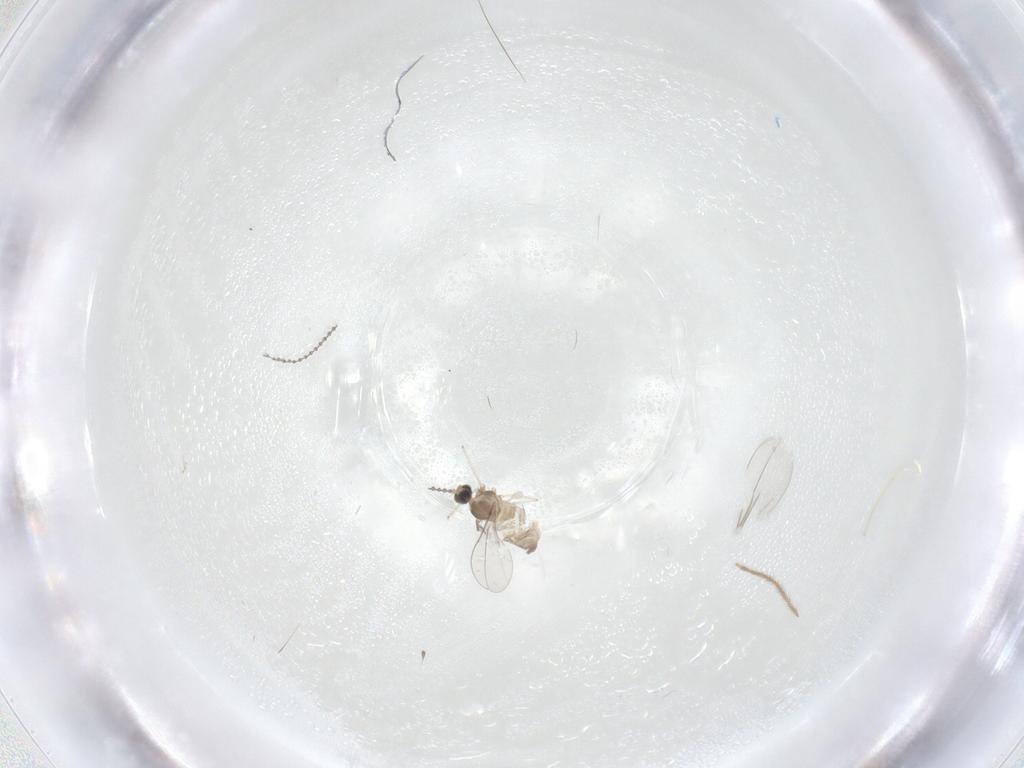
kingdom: Animalia
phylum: Arthropoda
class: Insecta
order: Diptera
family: Cecidomyiidae
